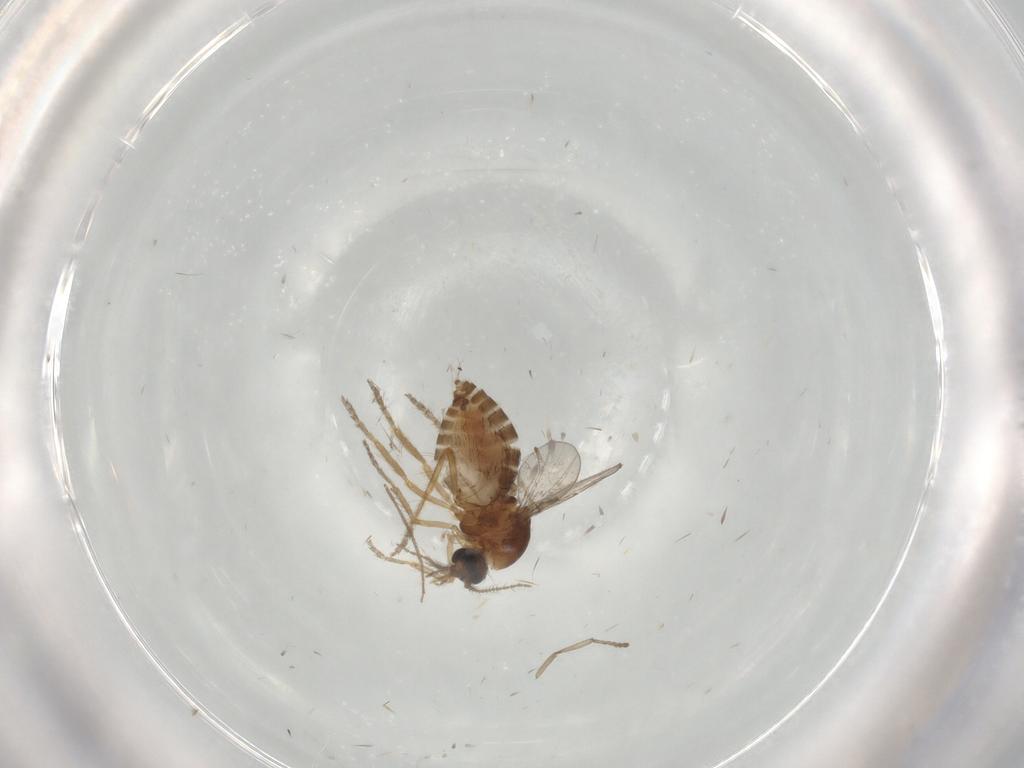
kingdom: Animalia
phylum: Arthropoda
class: Insecta
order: Diptera
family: Ceratopogonidae
